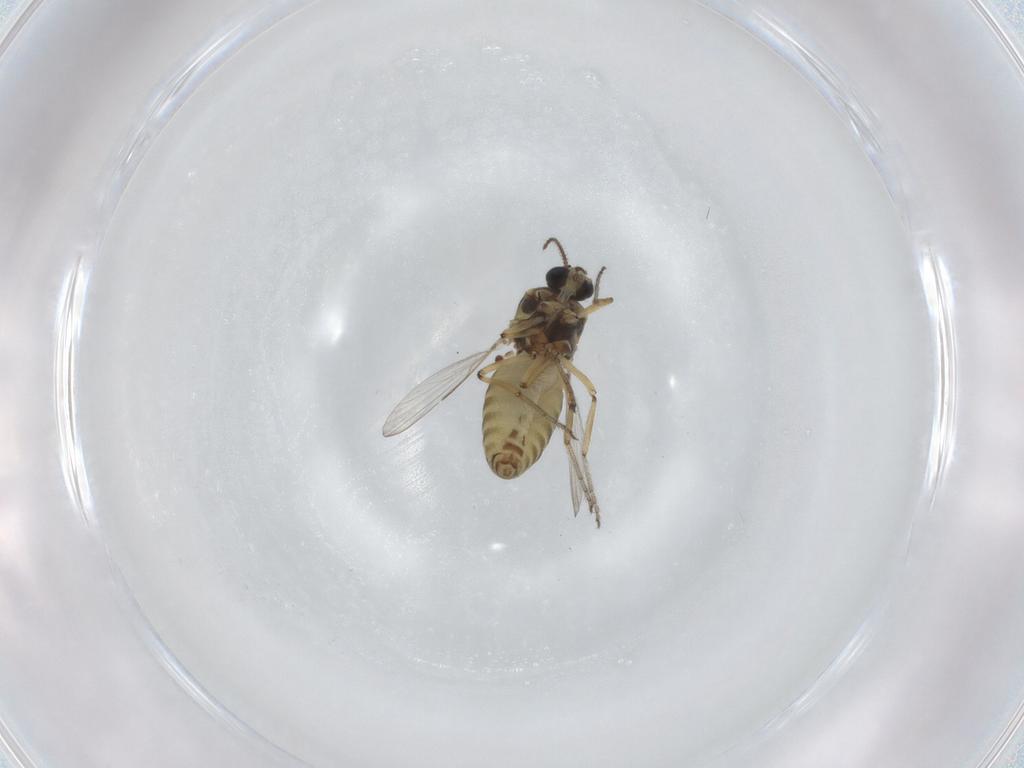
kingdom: Animalia
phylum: Arthropoda
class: Insecta
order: Diptera
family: Ceratopogonidae
